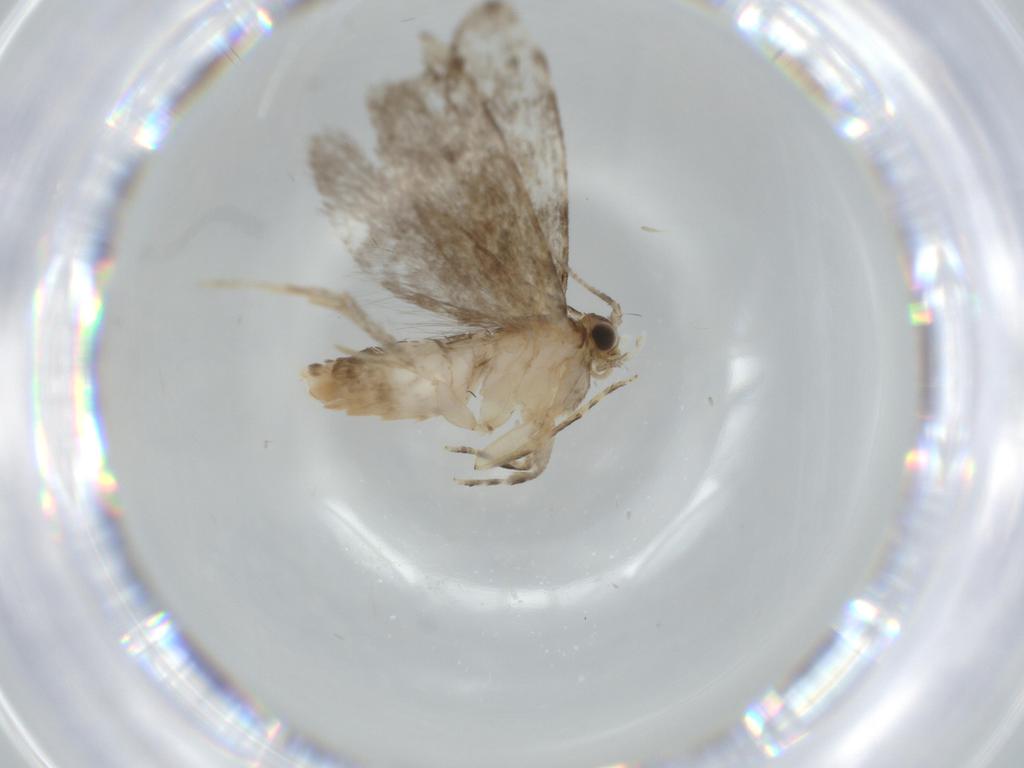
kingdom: Animalia
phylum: Arthropoda
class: Insecta
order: Lepidoptera
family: Tineidae
